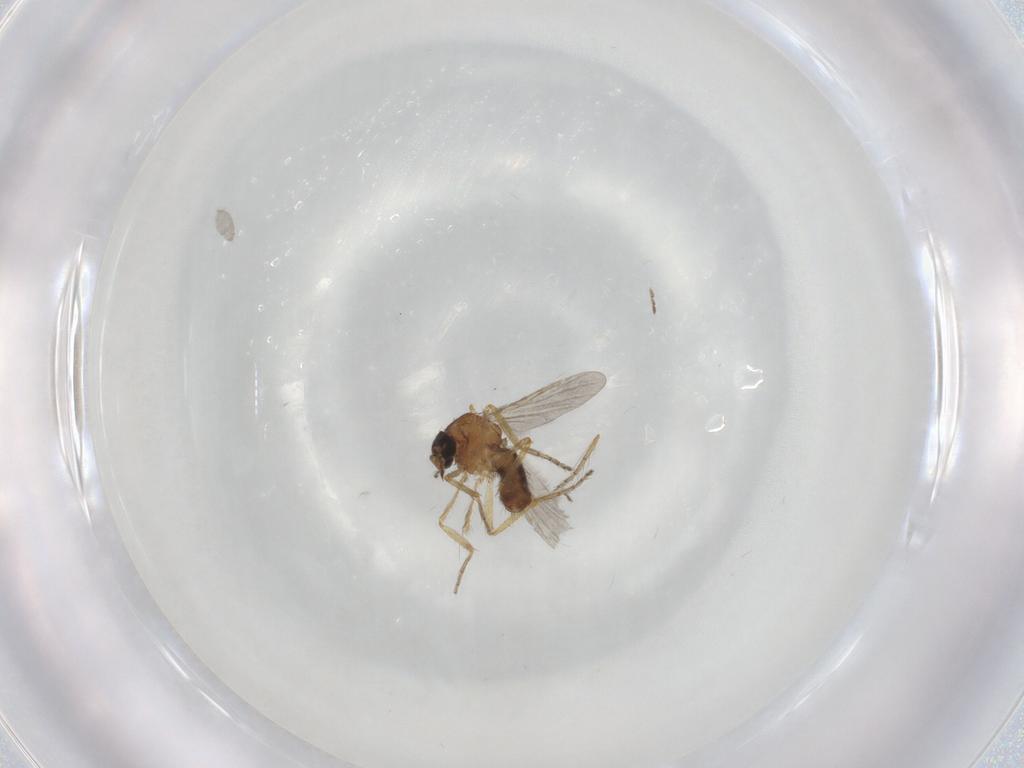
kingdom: Animalia
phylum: Arthropoda
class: Insecta
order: Diptera
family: Ceratopogonidae
